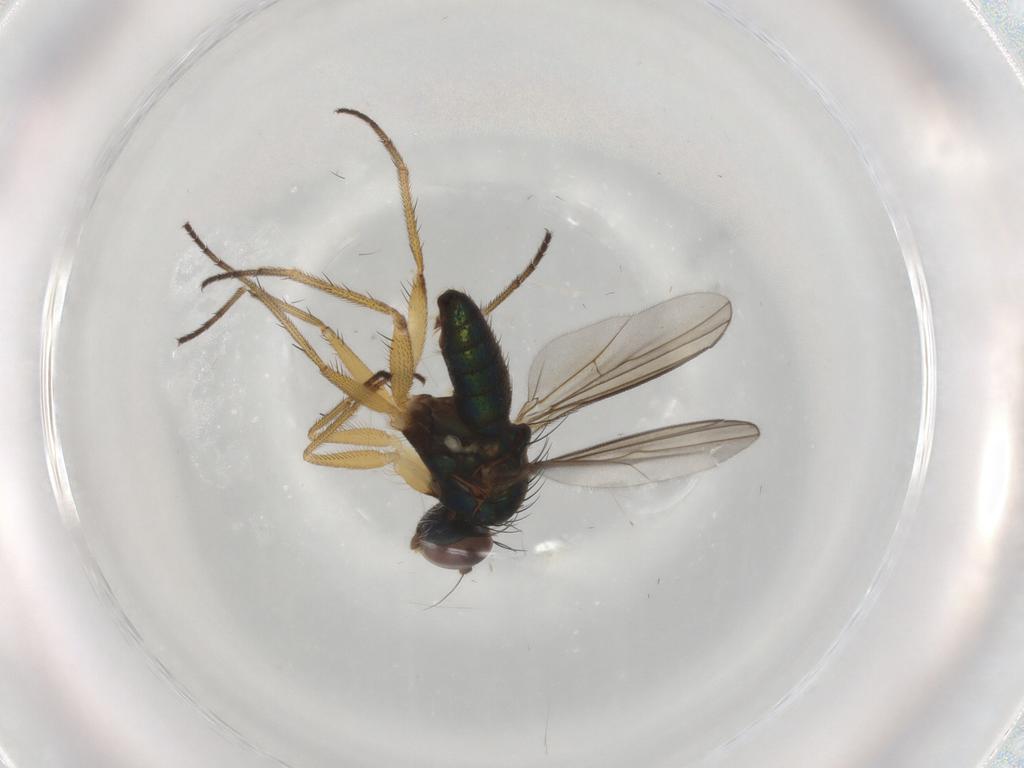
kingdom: Animalia
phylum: Arthropoda
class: Insecta
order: Diptera
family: Dolichopodidae
